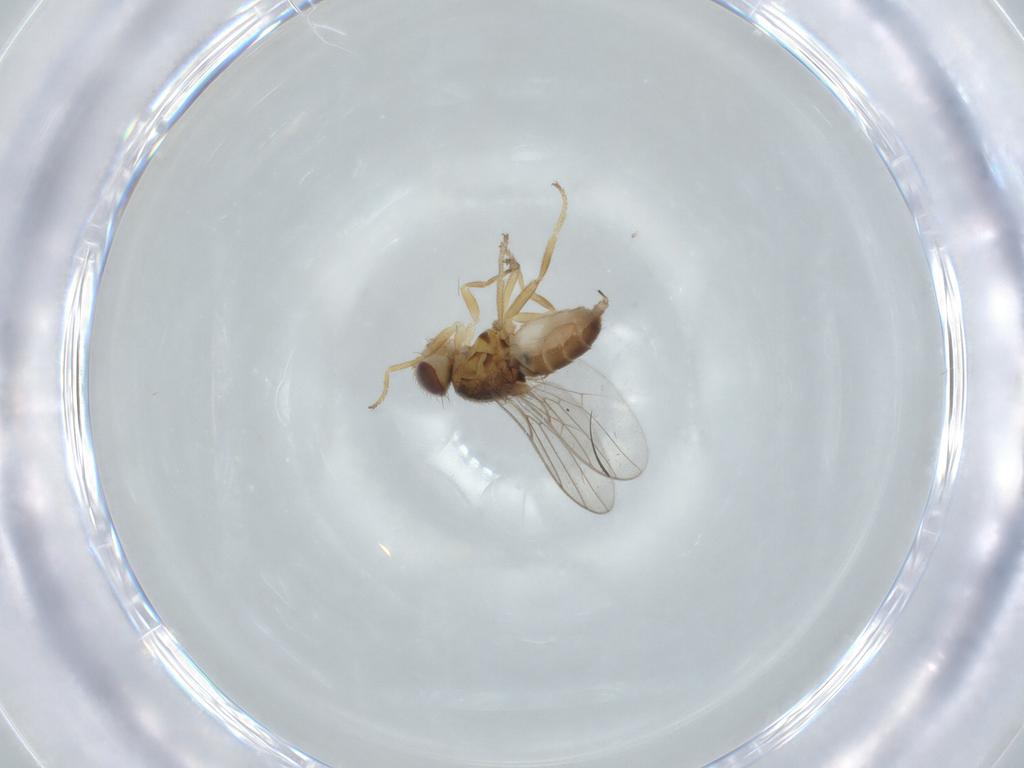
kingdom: Animalia
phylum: Arthropoda
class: Insecta
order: Diptera
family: Chloropidae
